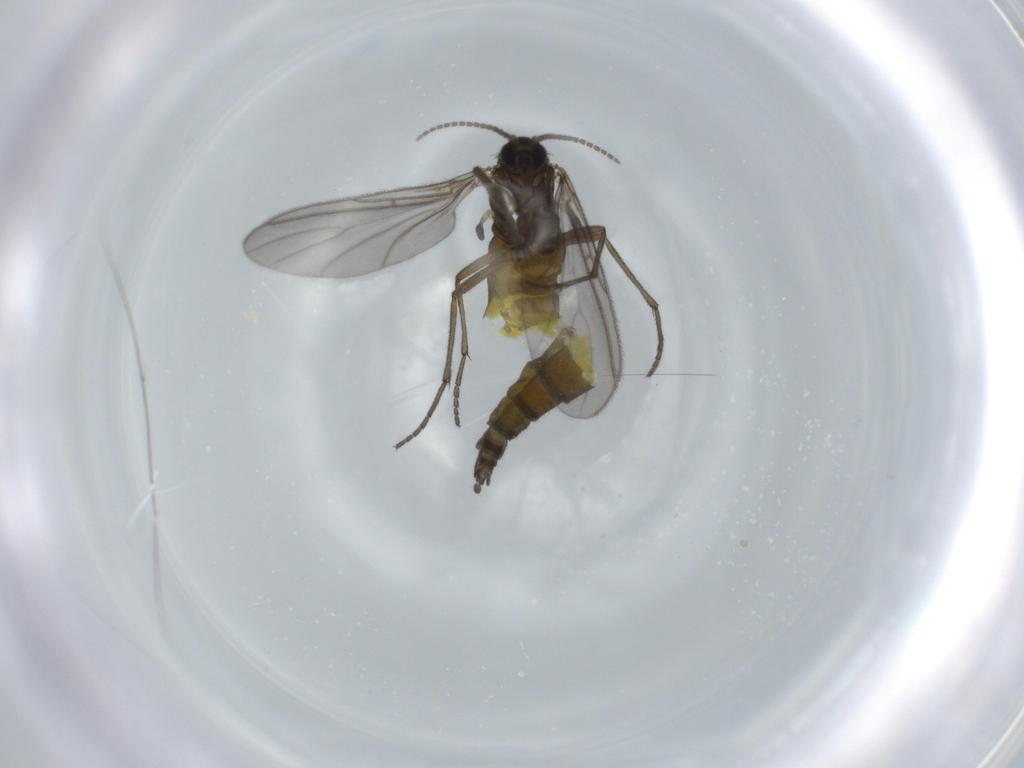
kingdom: Animalia
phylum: Arthropoda
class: Insecta
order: Diptera
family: Sciaridae
